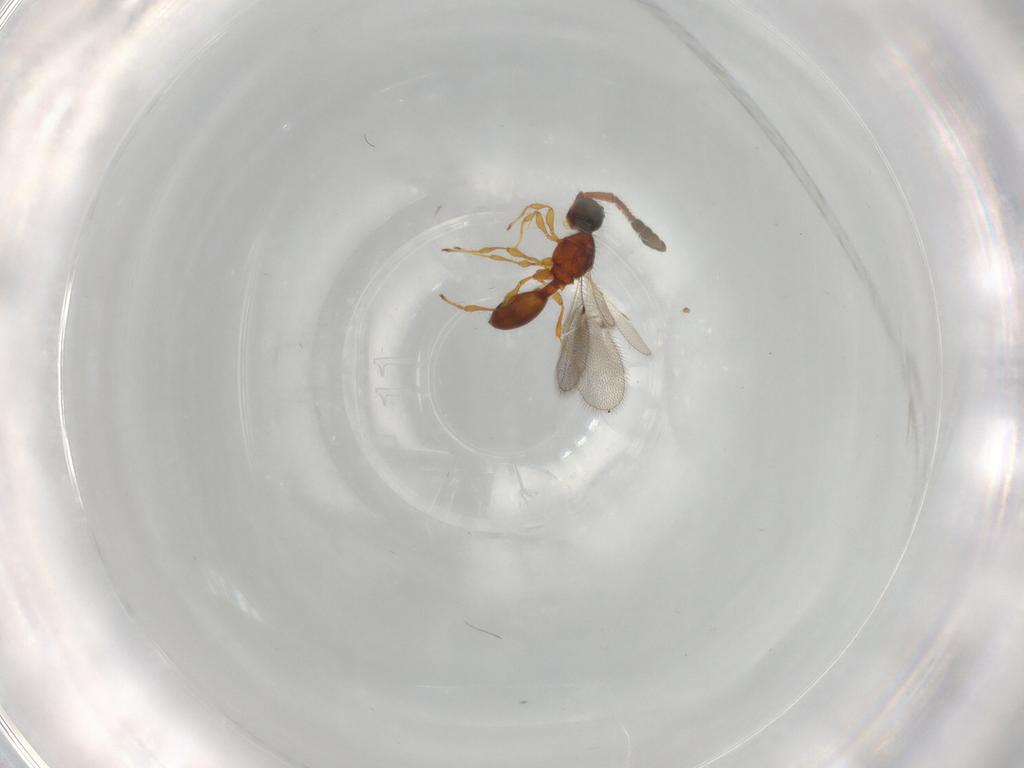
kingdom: Animalia
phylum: Arthropoda
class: Insecta
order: Hymenoptera
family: Diapriidae
